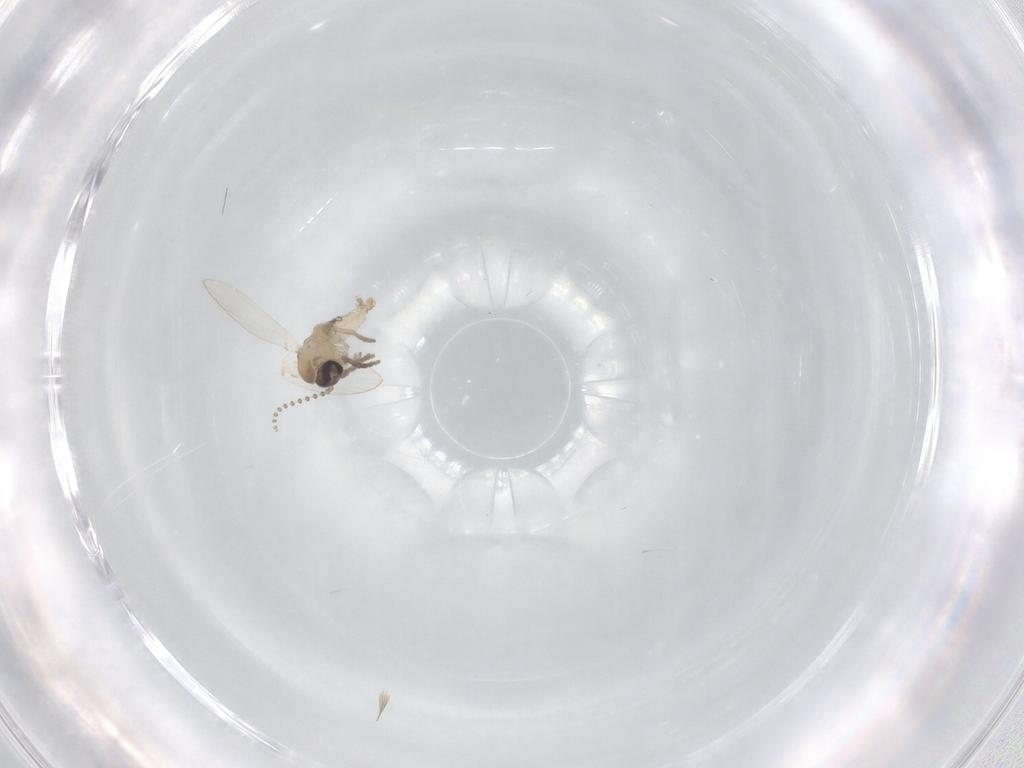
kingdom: Animalia
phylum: Arthropoda
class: Insecta
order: Diptera
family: Psychodidae
